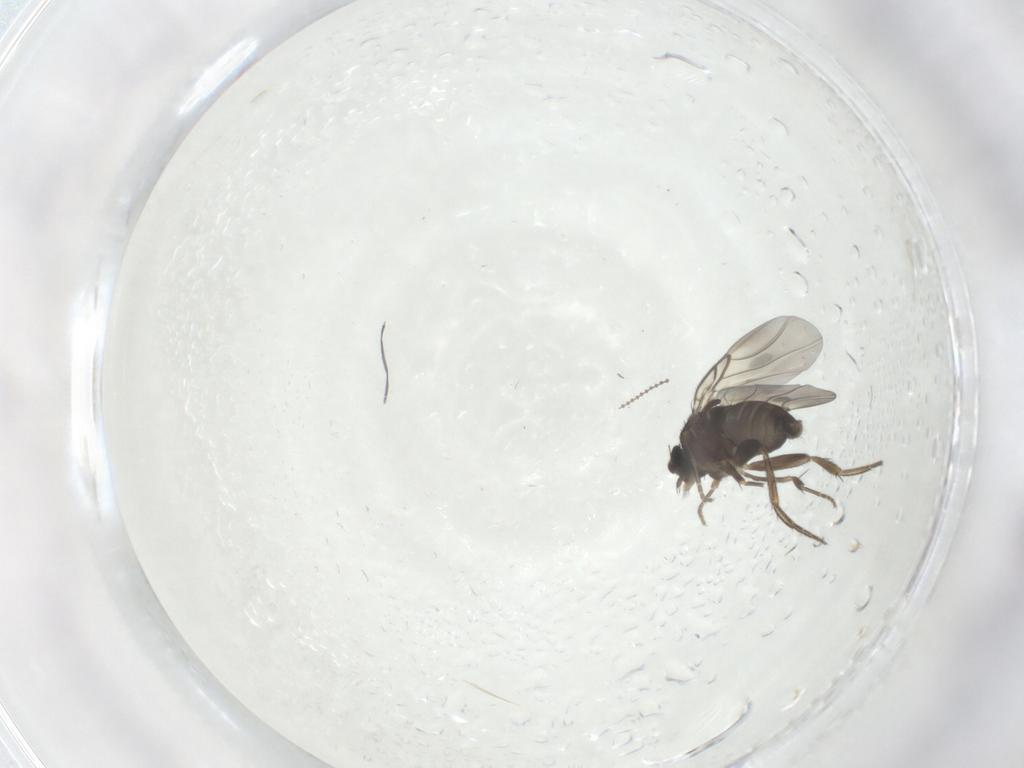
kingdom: Animalia
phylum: Arthropoda
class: Insecta
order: Diptera
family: Phoridae
